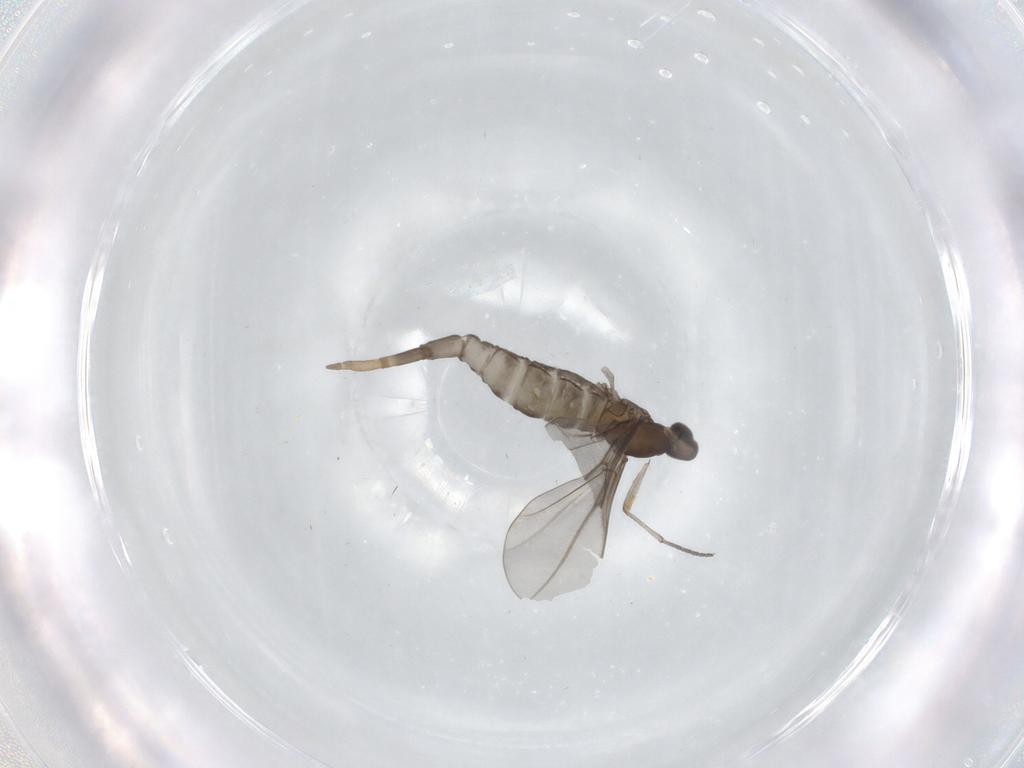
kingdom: Animalia
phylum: Arthropoda
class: Insecta
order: Diptera
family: Cecidomyiidae
